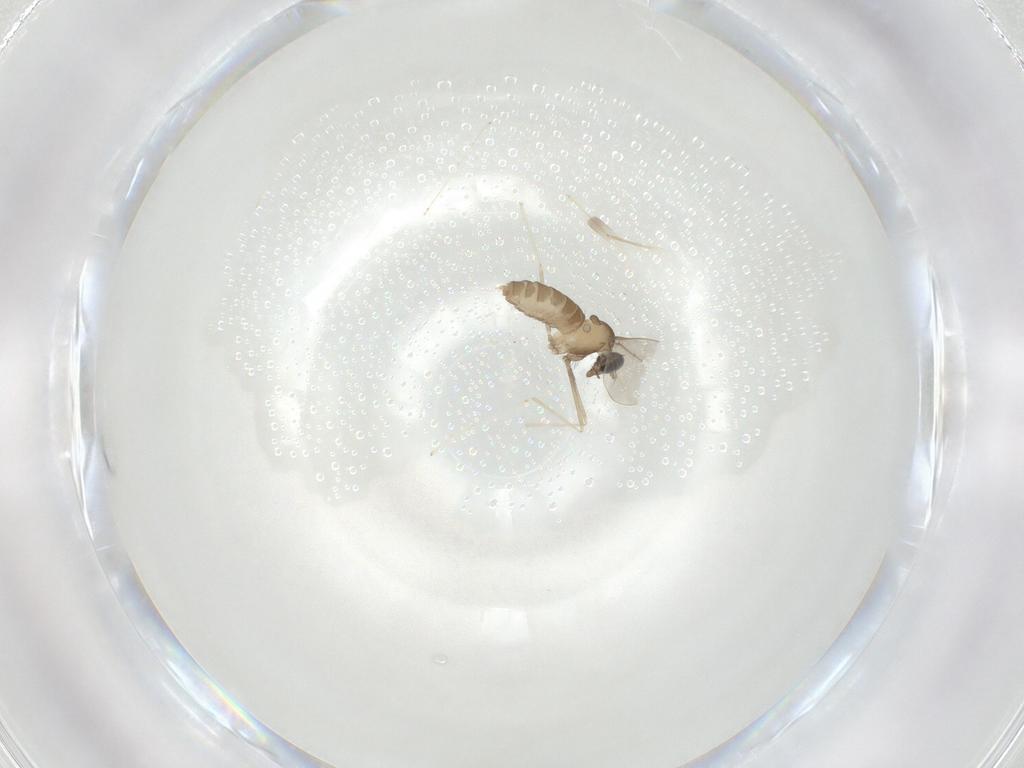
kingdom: Animalia
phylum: Arthropoda
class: Insecta
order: Diptera
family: Cecidomyiidae
